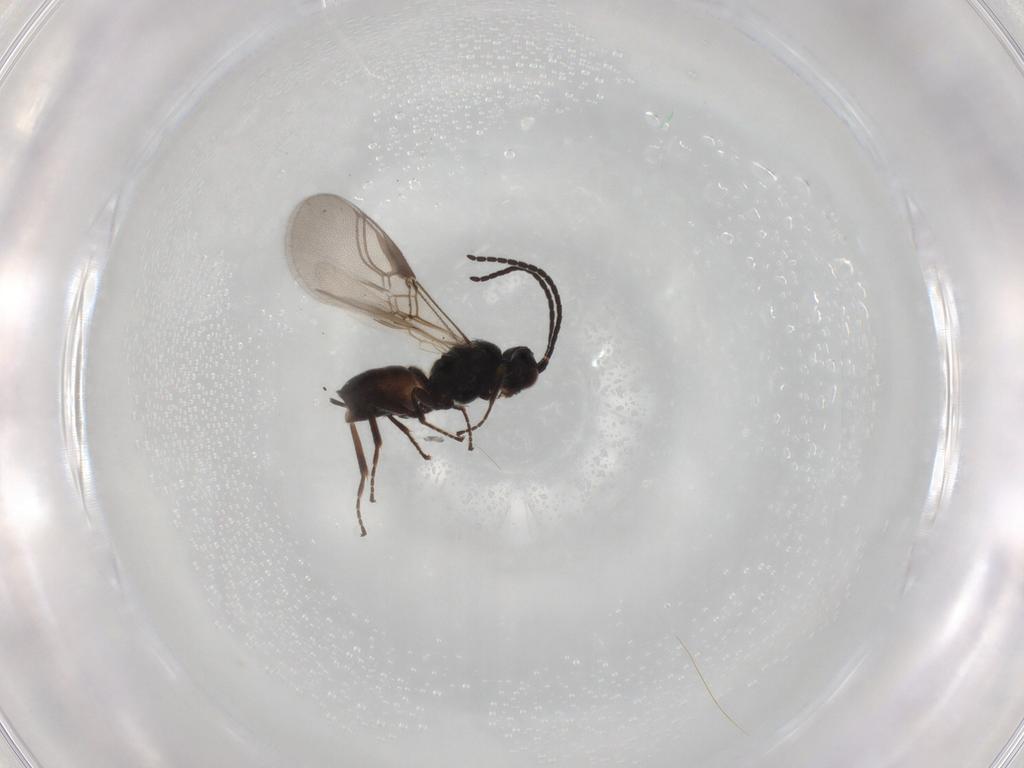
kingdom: Animalia
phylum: Arthropoda
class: Insecta
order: Hymenoptera
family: Braconidae
